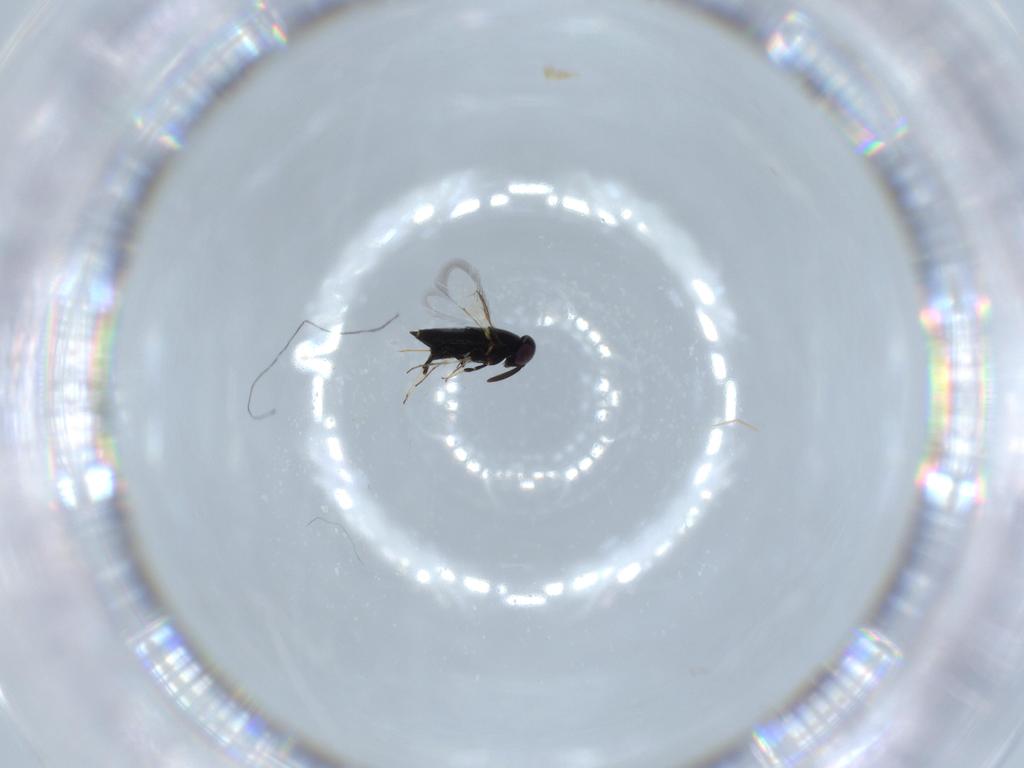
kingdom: Animalia
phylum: Arthropoda
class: Insecta
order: Hymenoptera
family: Signiphoridae
